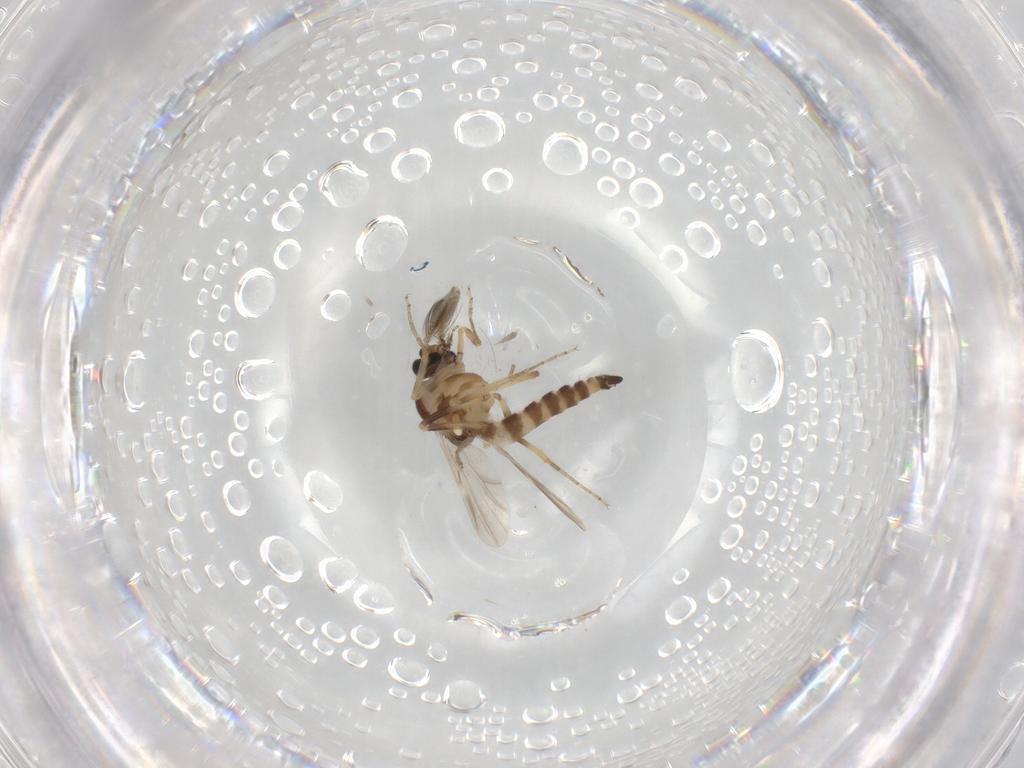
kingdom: Animalia
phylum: Arthropoda
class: Insecta
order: Diptera
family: Ceratopogonidae
